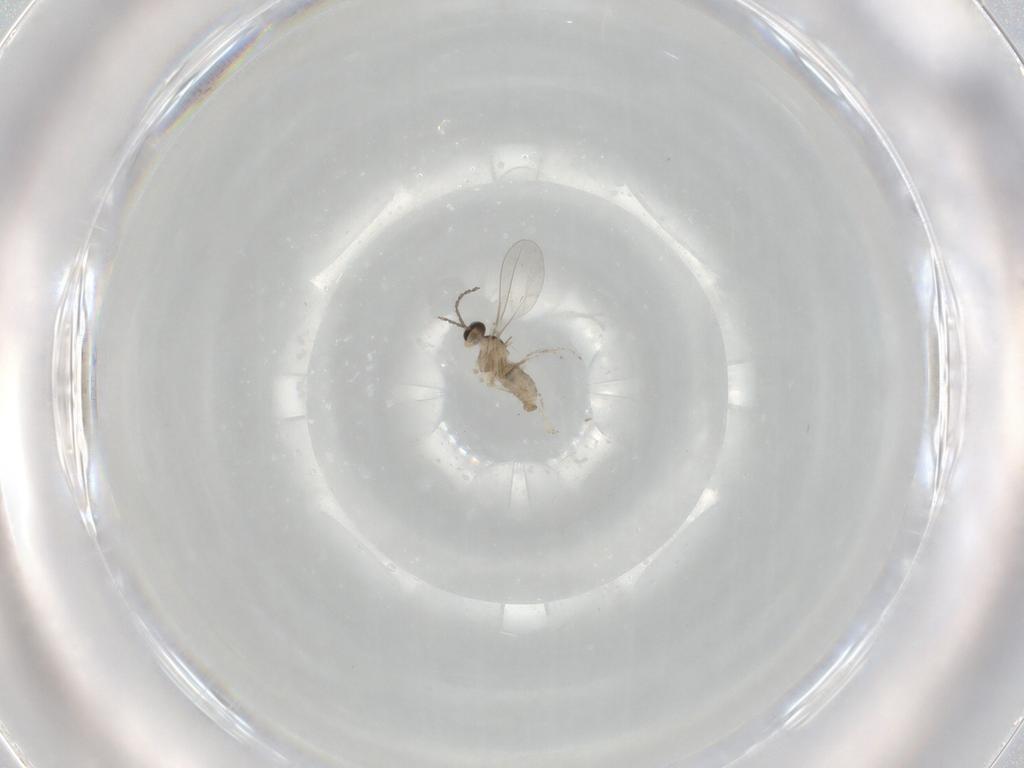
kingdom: Animalia
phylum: Arthropoda
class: Insecta
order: Diptera
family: Cecidomyiidae
